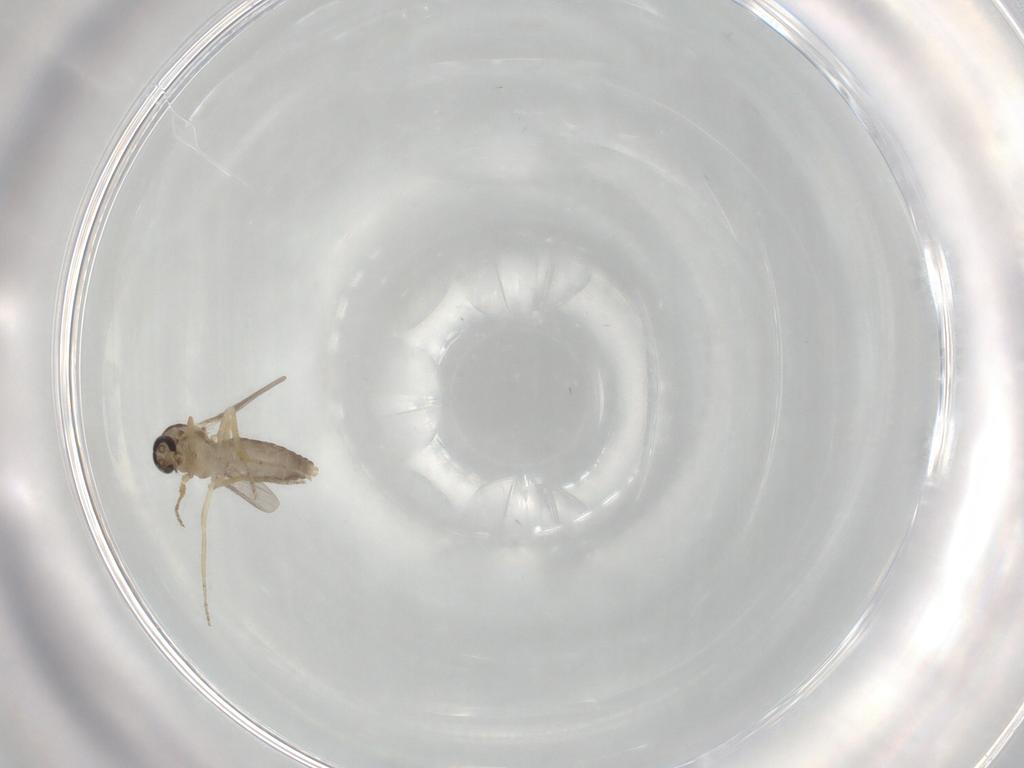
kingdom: Animalia
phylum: Arthropoda
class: Insecta
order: Diptera
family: Ceratopogonidae
